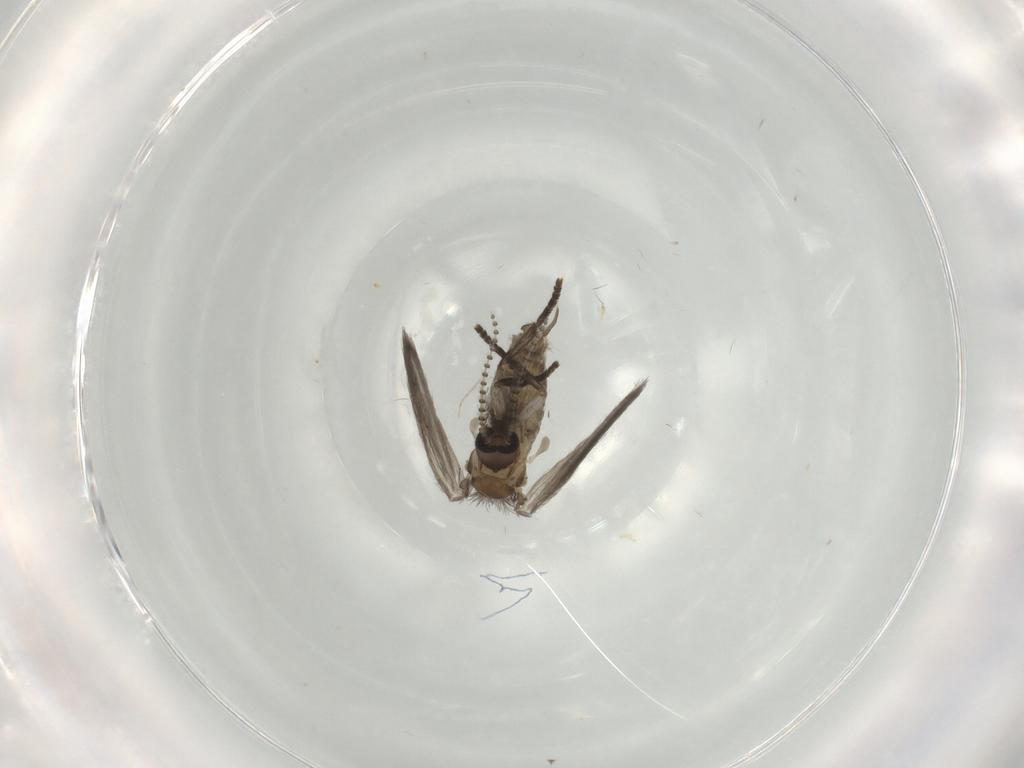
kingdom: Animalia
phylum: Arthropoda
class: Insecta
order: Diptera
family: Psychodidae
